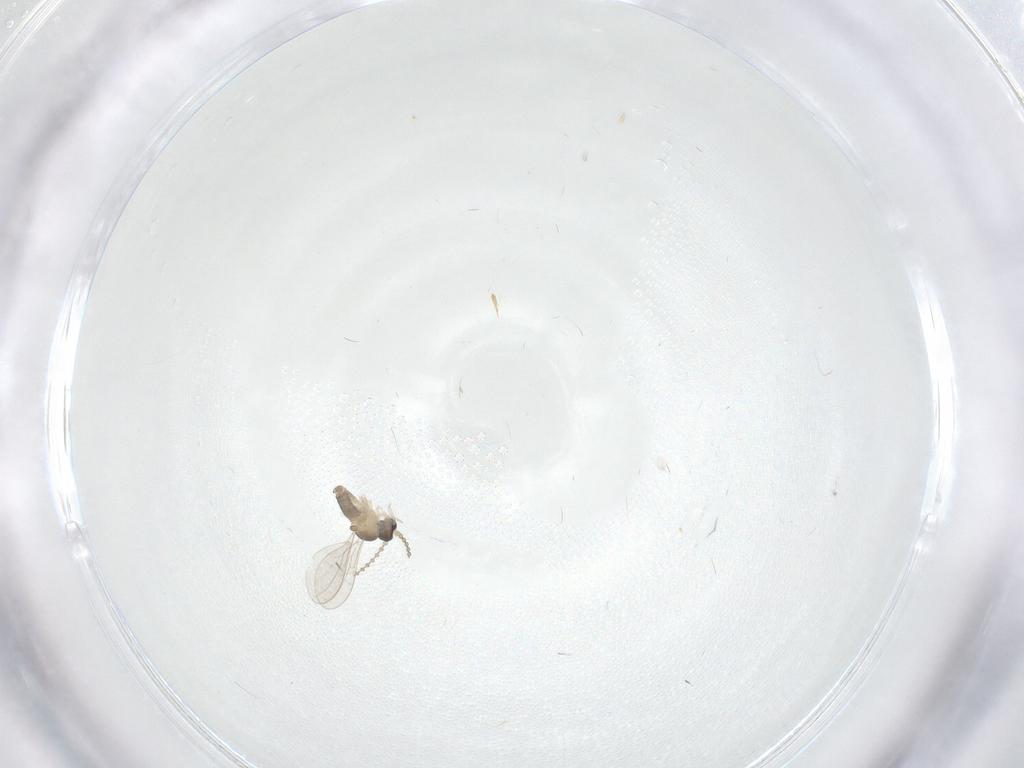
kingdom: Animalia
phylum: Arthropoda
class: Insecta
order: Diptera
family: Cecidomyiidae
